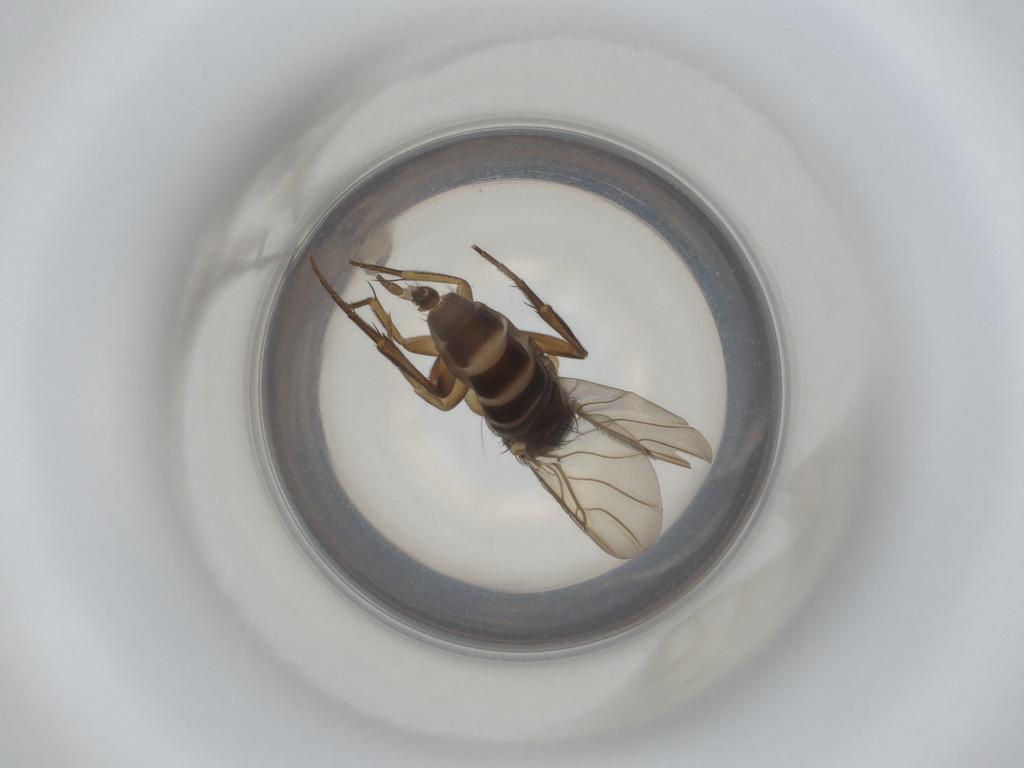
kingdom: Animalia
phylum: Arthropoda
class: Insecta
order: Diptera
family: Phoridae
